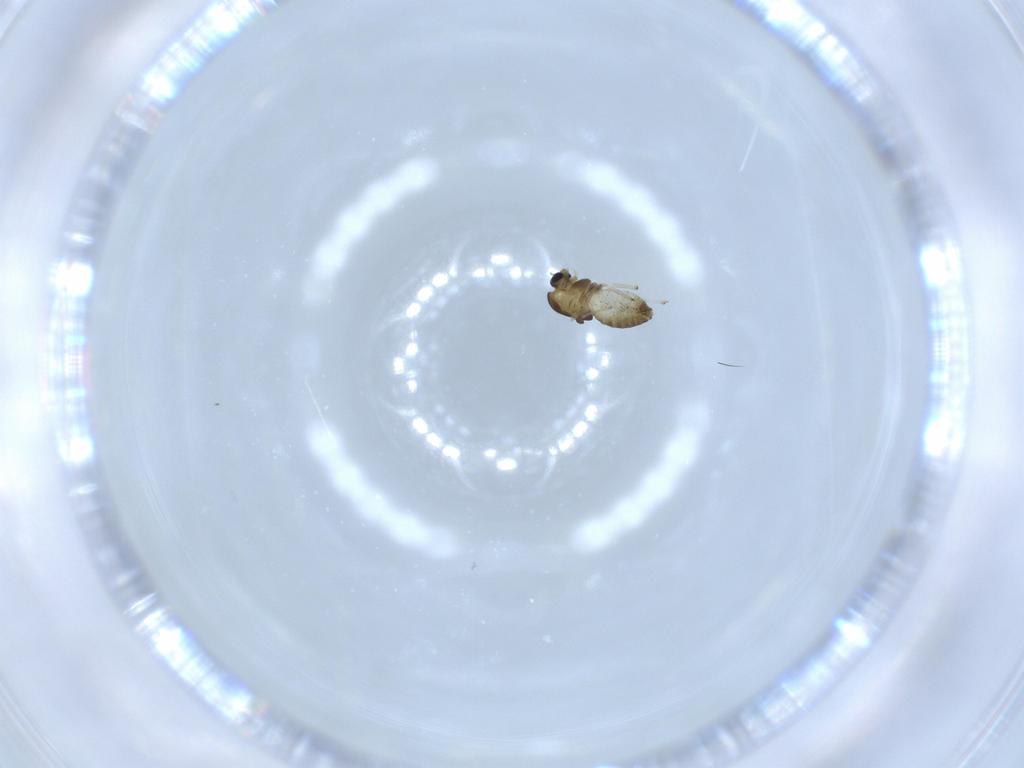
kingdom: Animalia
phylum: Arthropoda
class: Insecta
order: Diptera
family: Chironomidae
